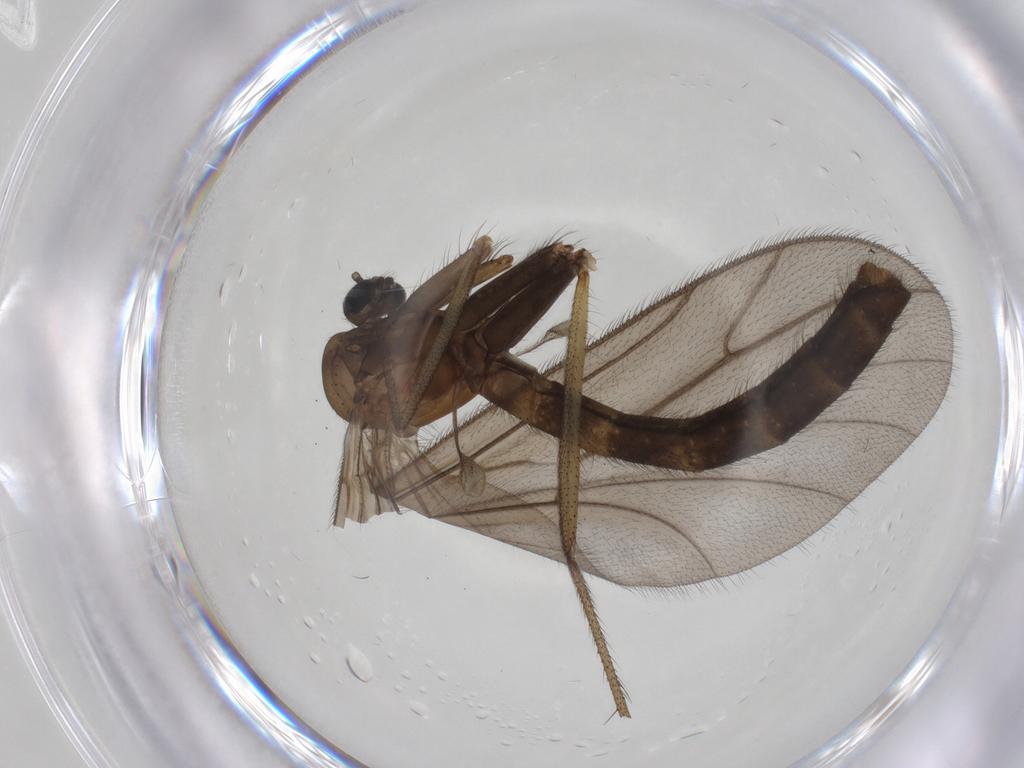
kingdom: Animalia
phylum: Arthropoda
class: Insecta
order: Diptera
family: Ditomyiidae
